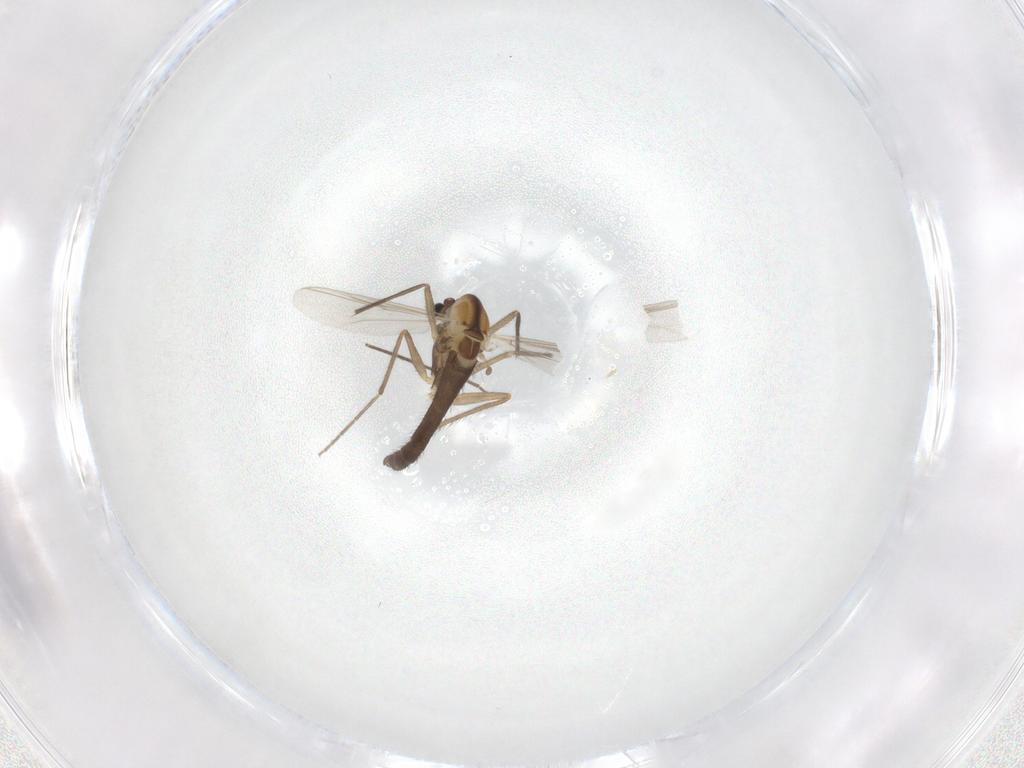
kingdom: Animalia
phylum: Arthropoda
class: Insecta
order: Diptera
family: Chironomidae
